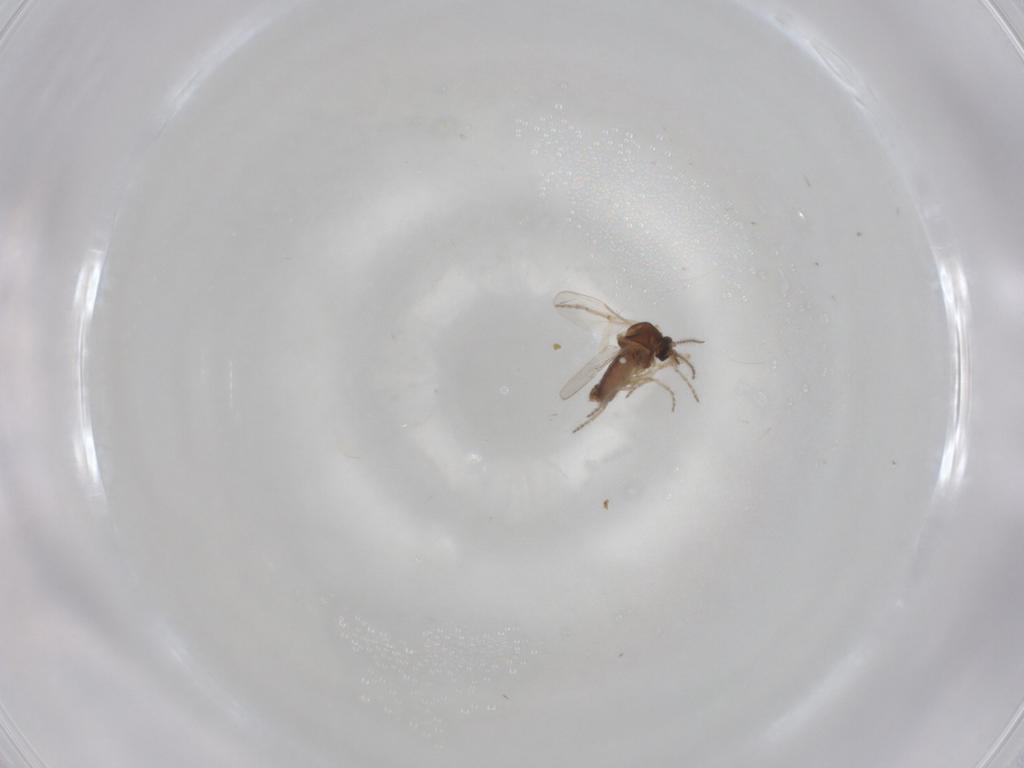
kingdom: Animalia
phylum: Arthropoda
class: Insecta
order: Diptera
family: Ceratopogonidae
